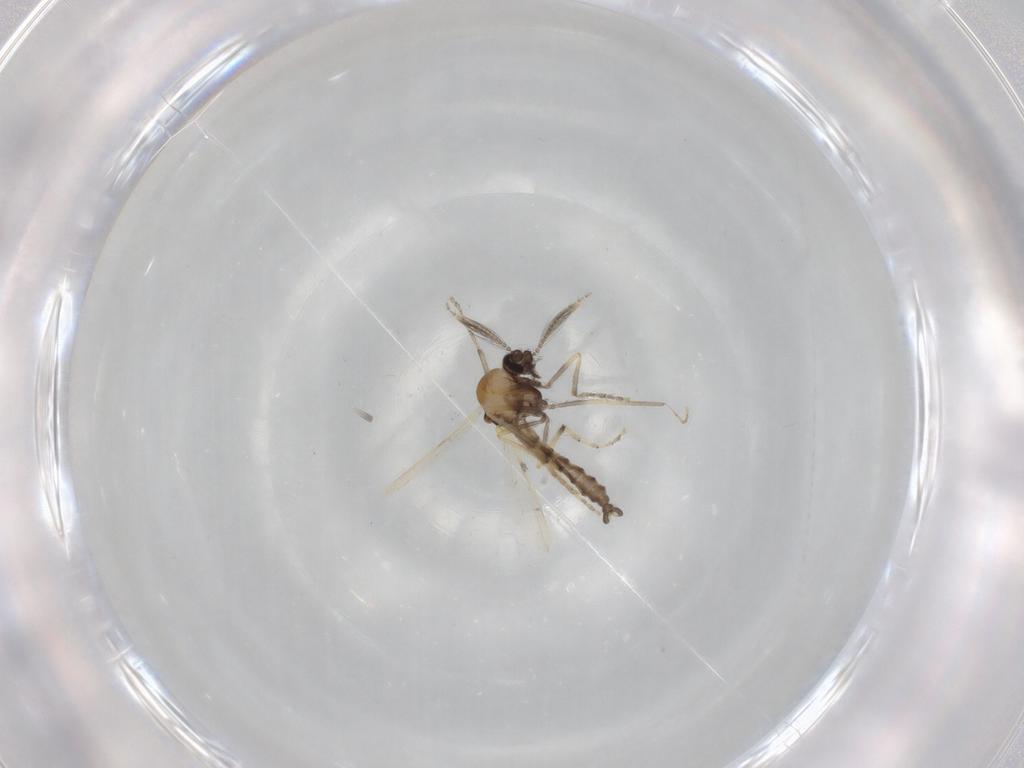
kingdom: Animalia
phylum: Arthropoda
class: Insecta
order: Diptera
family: Ceratopogonidae
